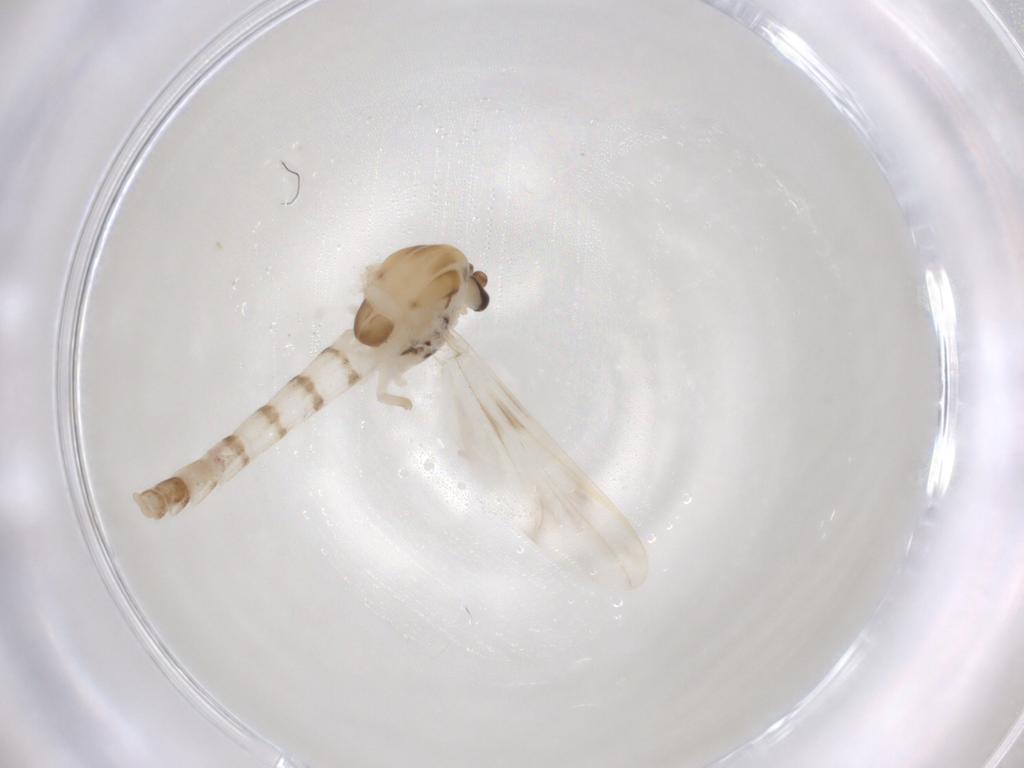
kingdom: Animalia
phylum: Arthropoda
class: Insecta
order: Diptera
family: Chironomidae
